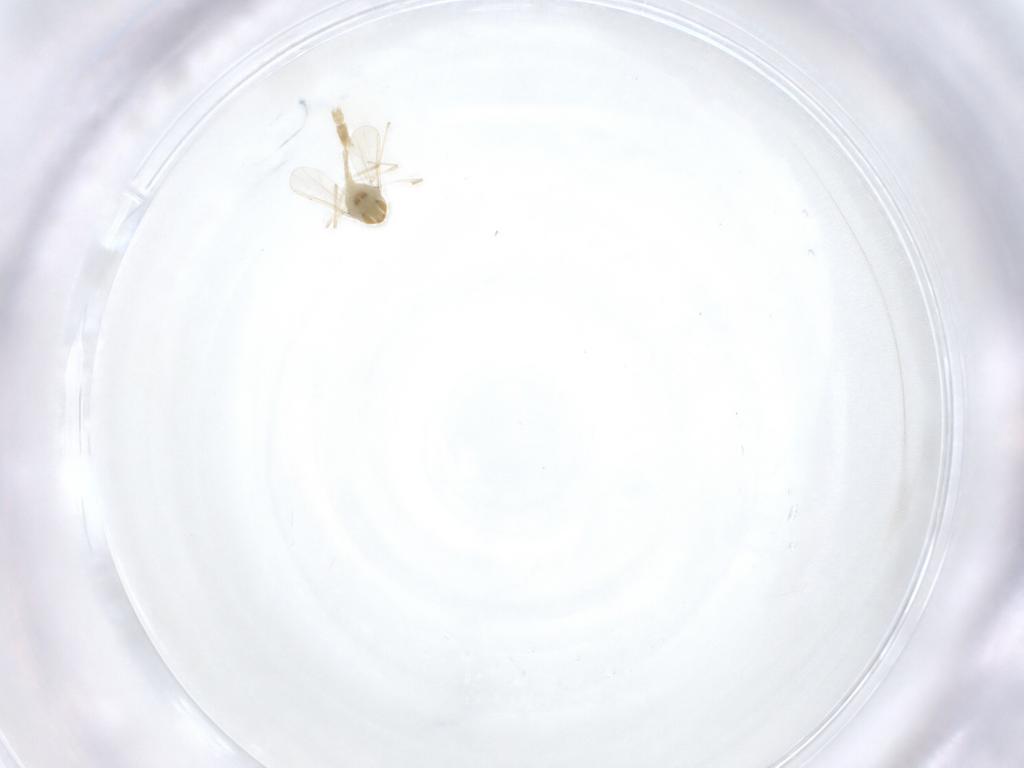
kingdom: Animalia
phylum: Arthropoda
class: Insecta
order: Diptera
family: Chironomidae
